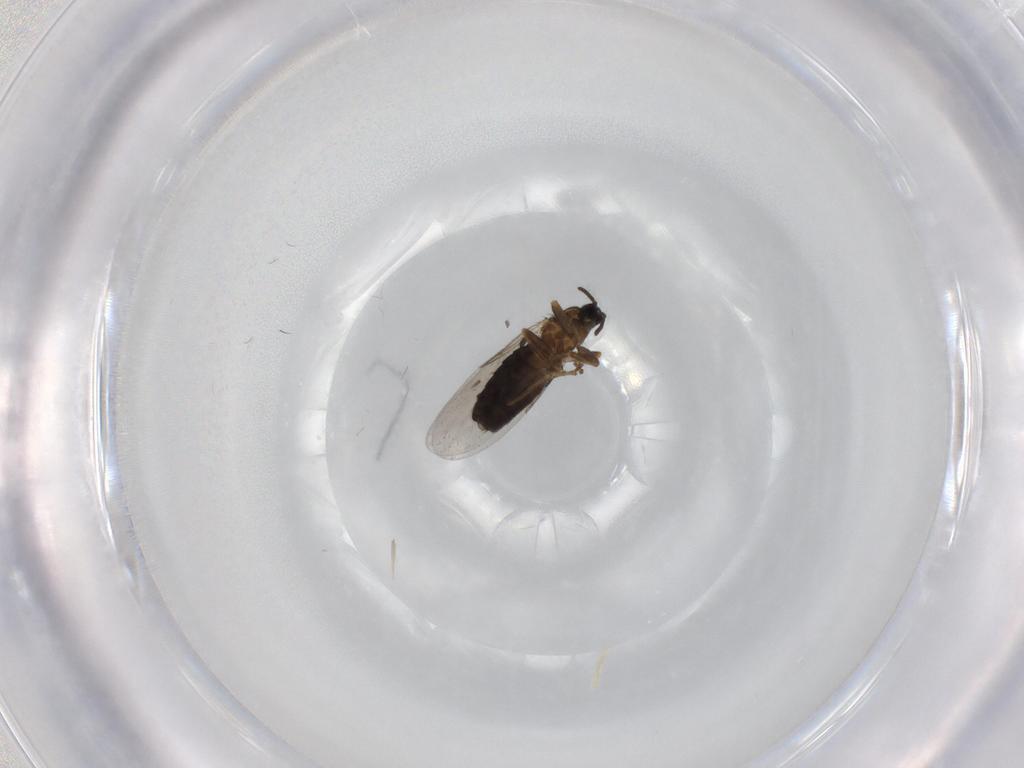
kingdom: Animalia
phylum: Arthropoda
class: Insecta
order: Diptera
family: Scatopsidae
